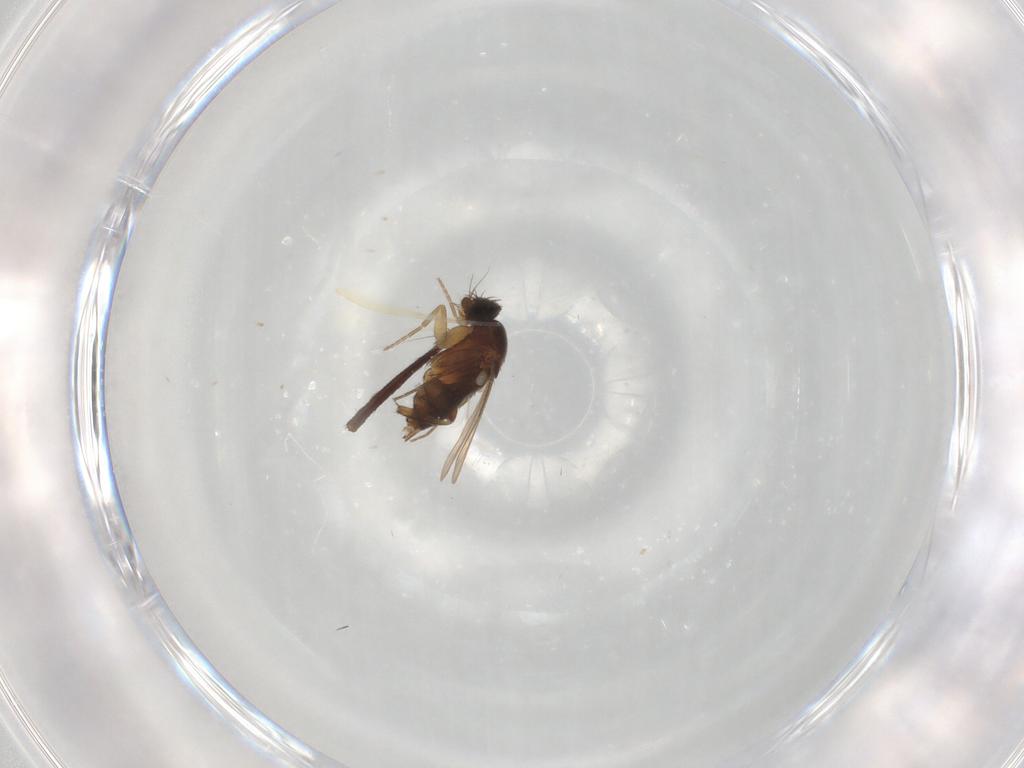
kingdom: Animalia
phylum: Arthropoda
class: Insecta
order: Diptera
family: Phoridae
